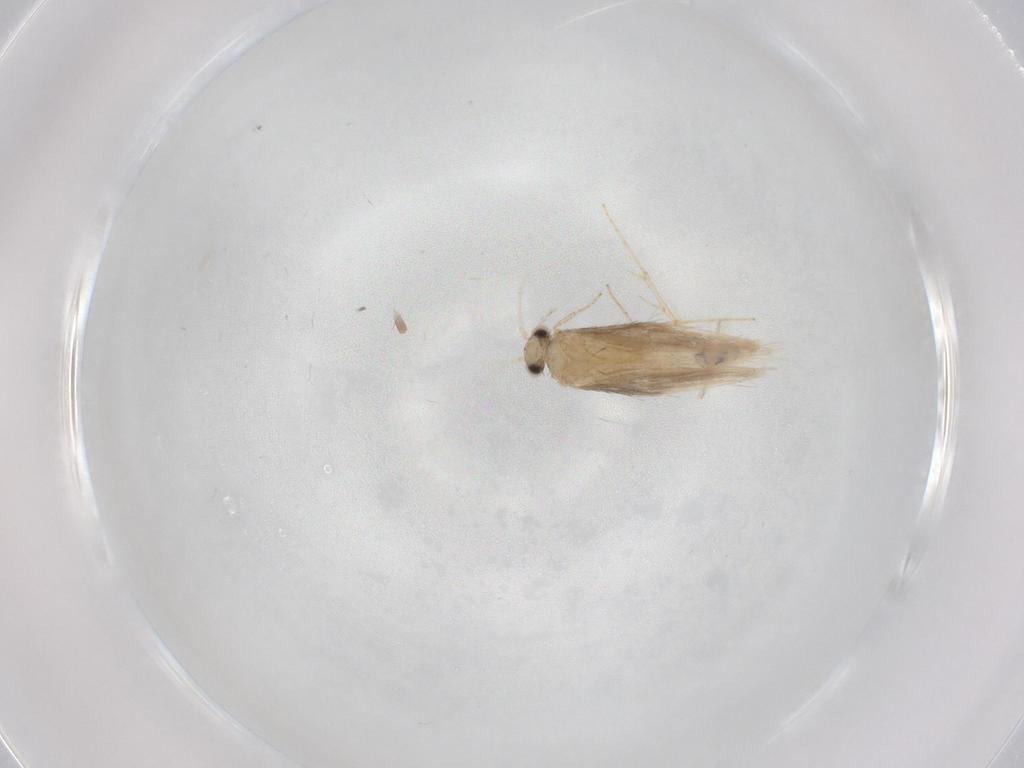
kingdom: Animalia
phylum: Arthropoda
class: Insecta
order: Trichoptera
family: Hydroptilidae
